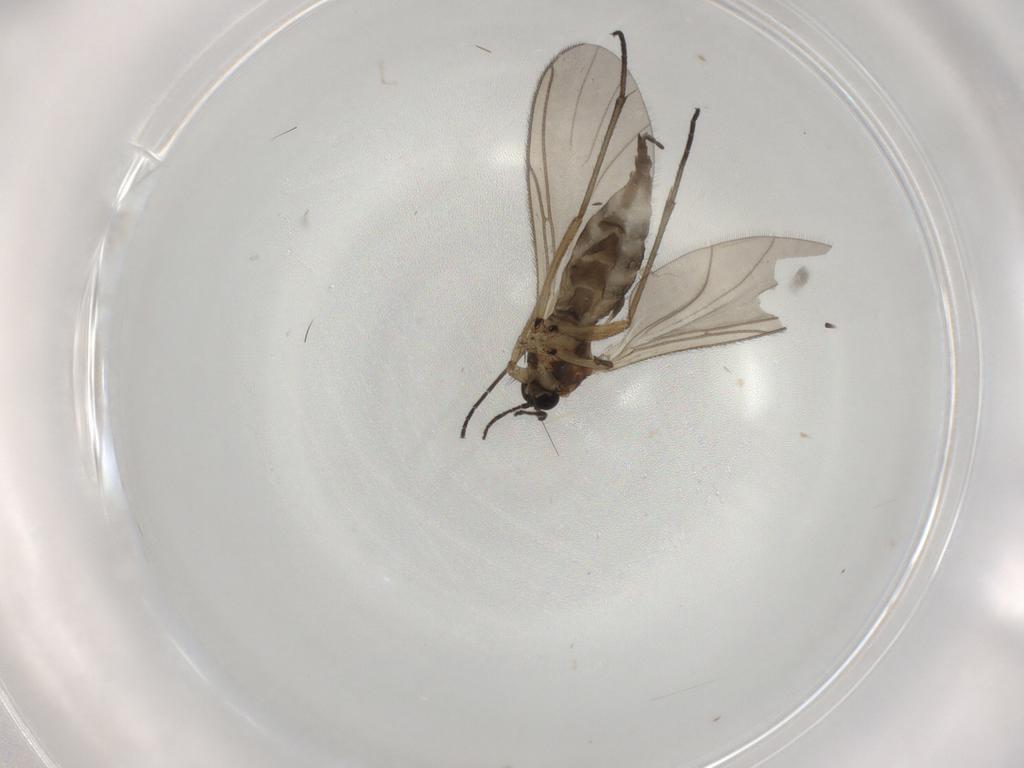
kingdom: Animalia
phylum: Arthropoda
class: Insecta
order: Diptera
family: Sciaridae
